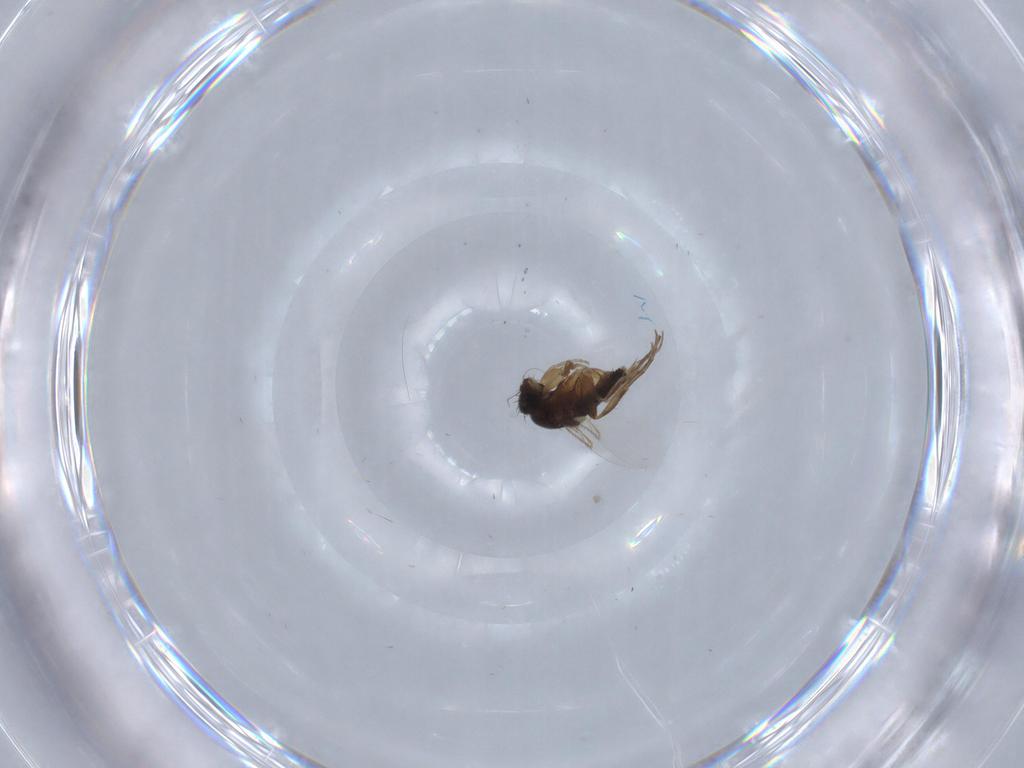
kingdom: Animalia
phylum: Arthropoda
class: Insecta
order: Diptera
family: Phoridae
